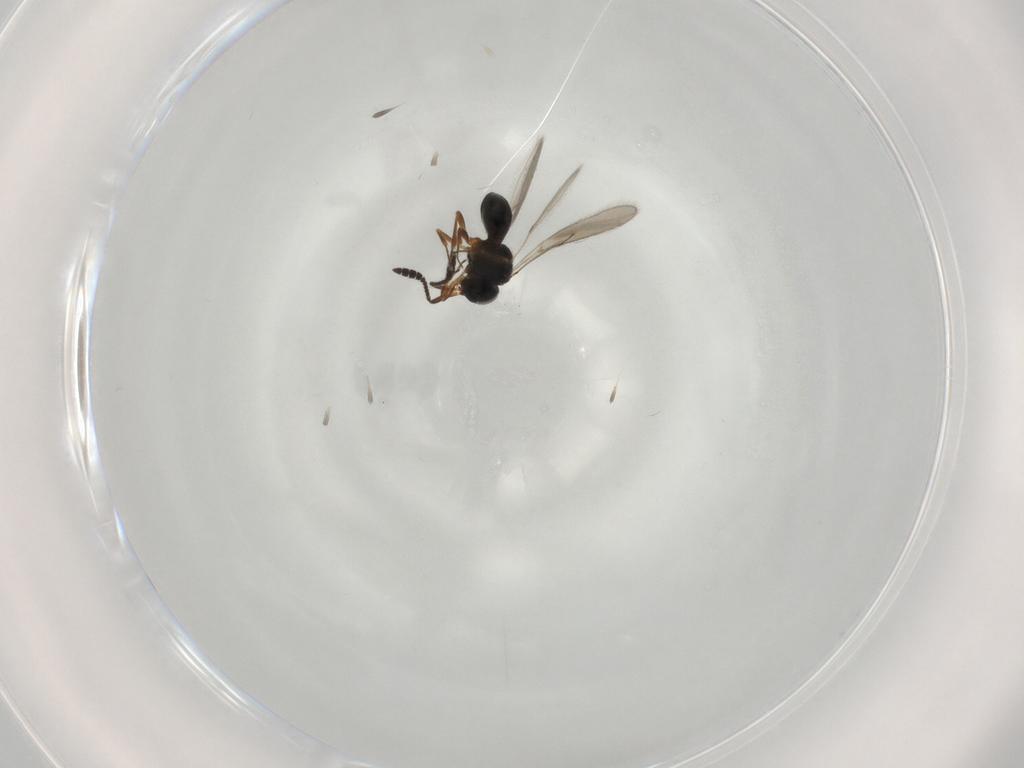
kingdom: Animalia
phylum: Arthropoda
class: Insecta
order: Hymenoptera
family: Scelionidae
